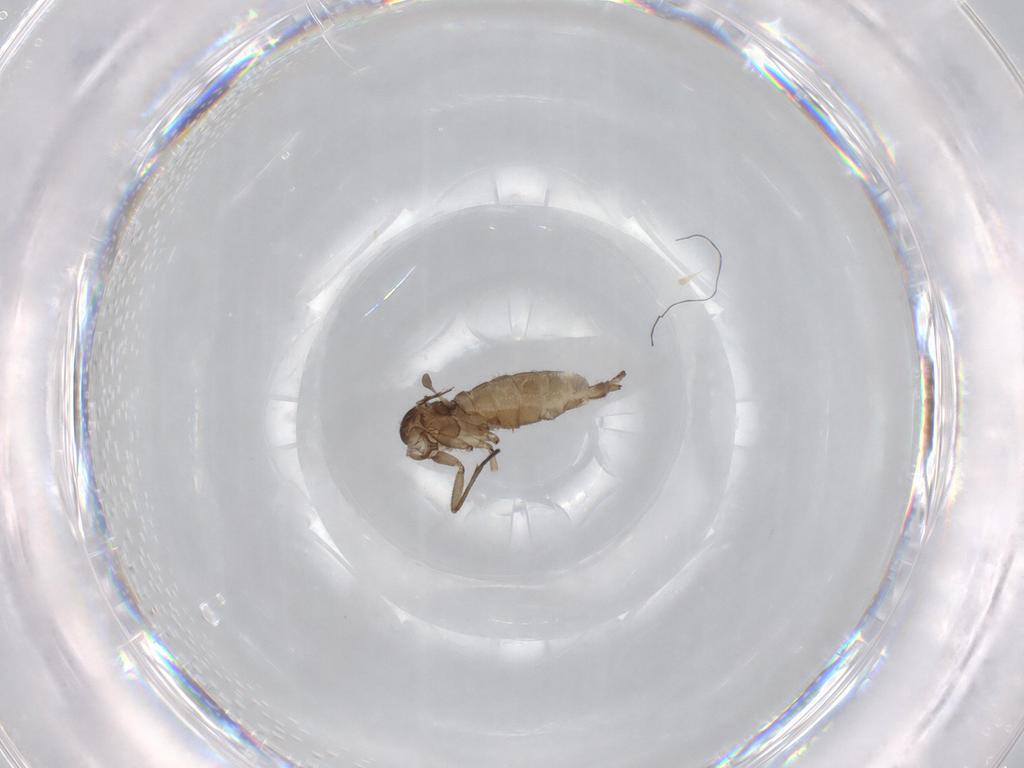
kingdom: Animalia
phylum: Arthropoda
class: Insecta
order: Diptera
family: Sciaridae
